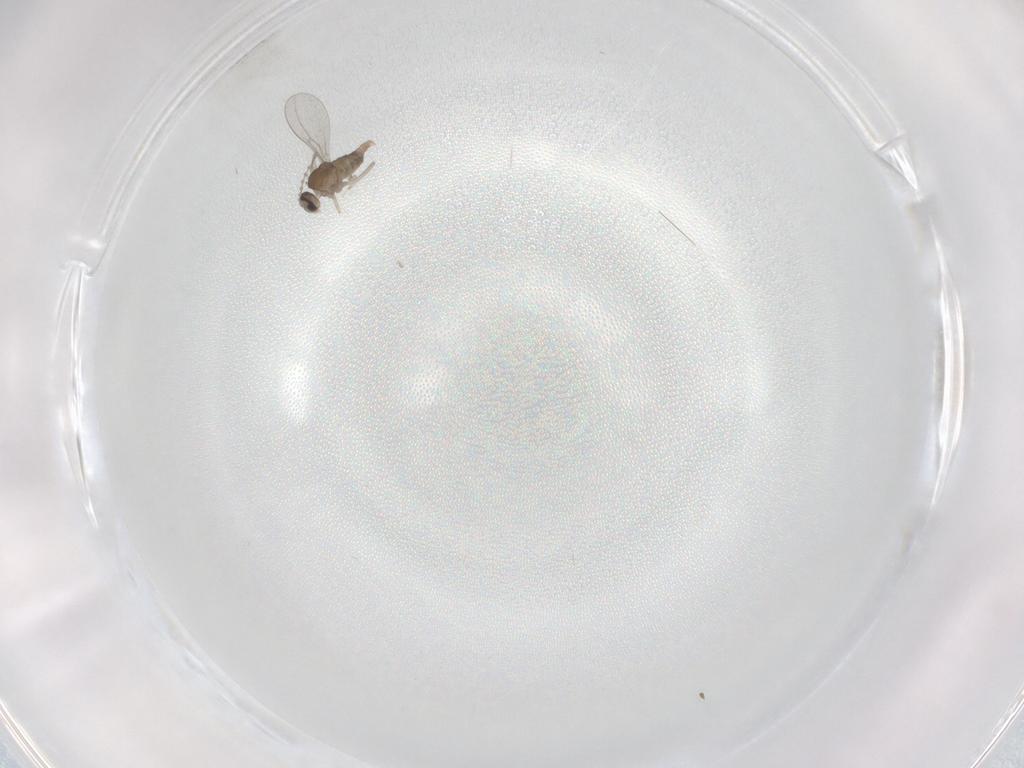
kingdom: Animalia
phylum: Arthropoda
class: Insecta
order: Diptera
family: Cecidomyiidae
